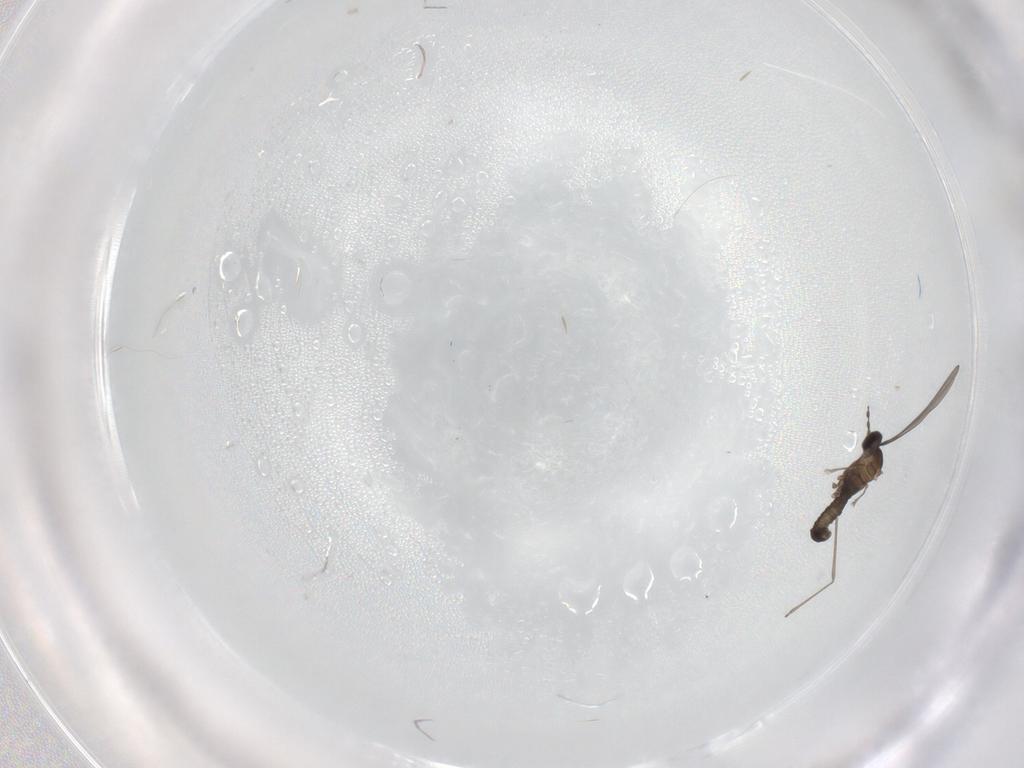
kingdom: Animalia
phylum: Arthropoda
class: Insecta
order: Diptera
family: Cecidomyiidae
